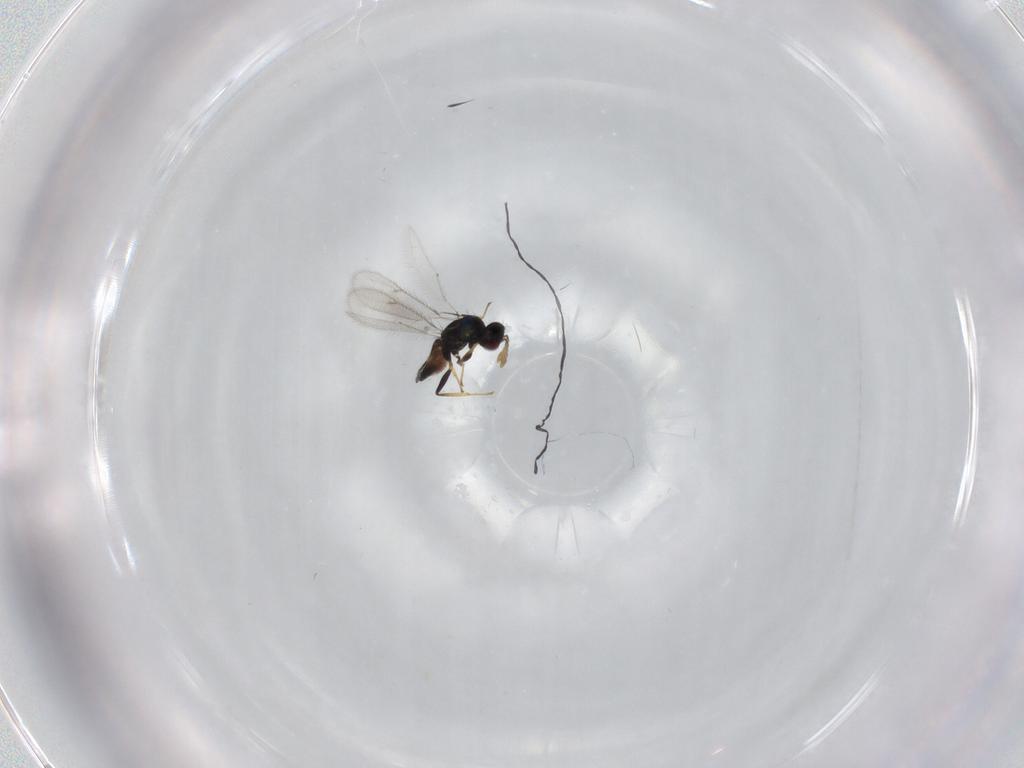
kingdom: Animalia
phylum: Arthropoda
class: Insecta
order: Hymenoptera
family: Eulophidae
